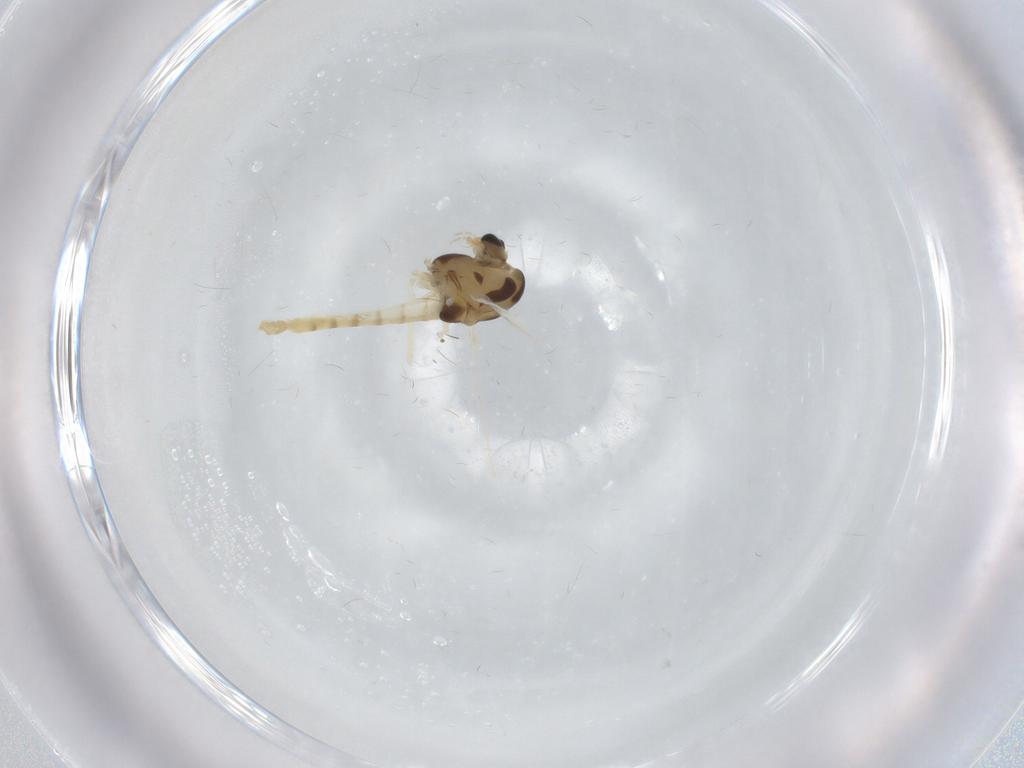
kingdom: Animalia
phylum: Arthropoda
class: Insecta
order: Diptera
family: Chironomidae
